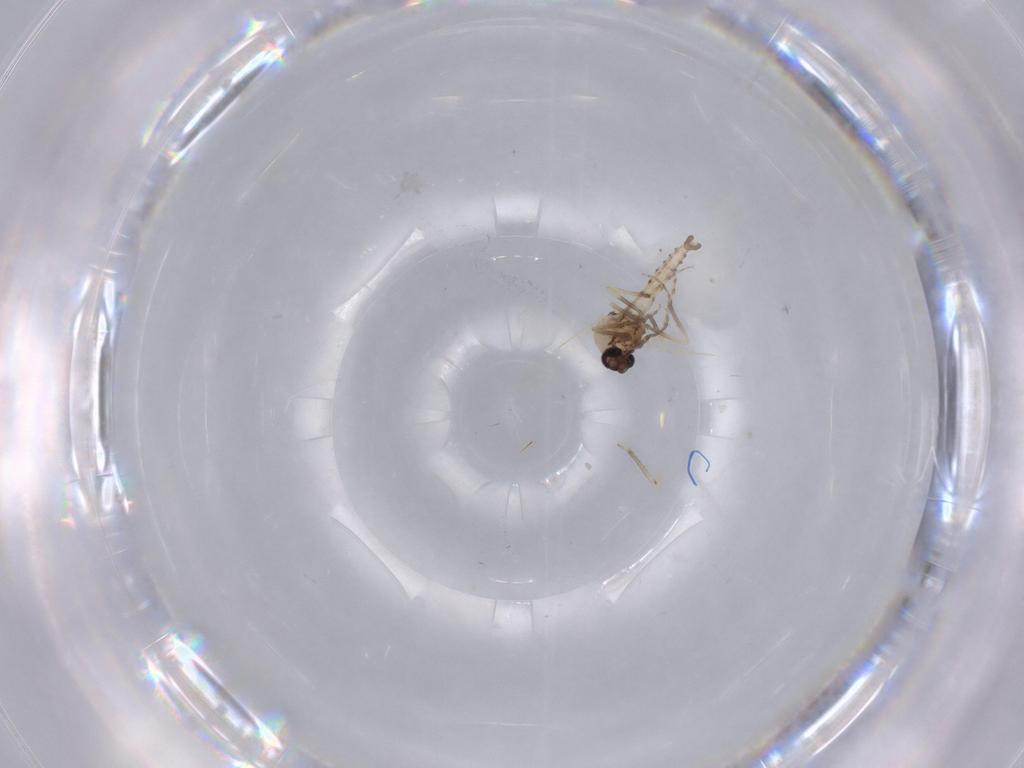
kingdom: Animalia
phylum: Arthropoda
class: Insecta
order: Diptera
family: Ceratopogonidae
